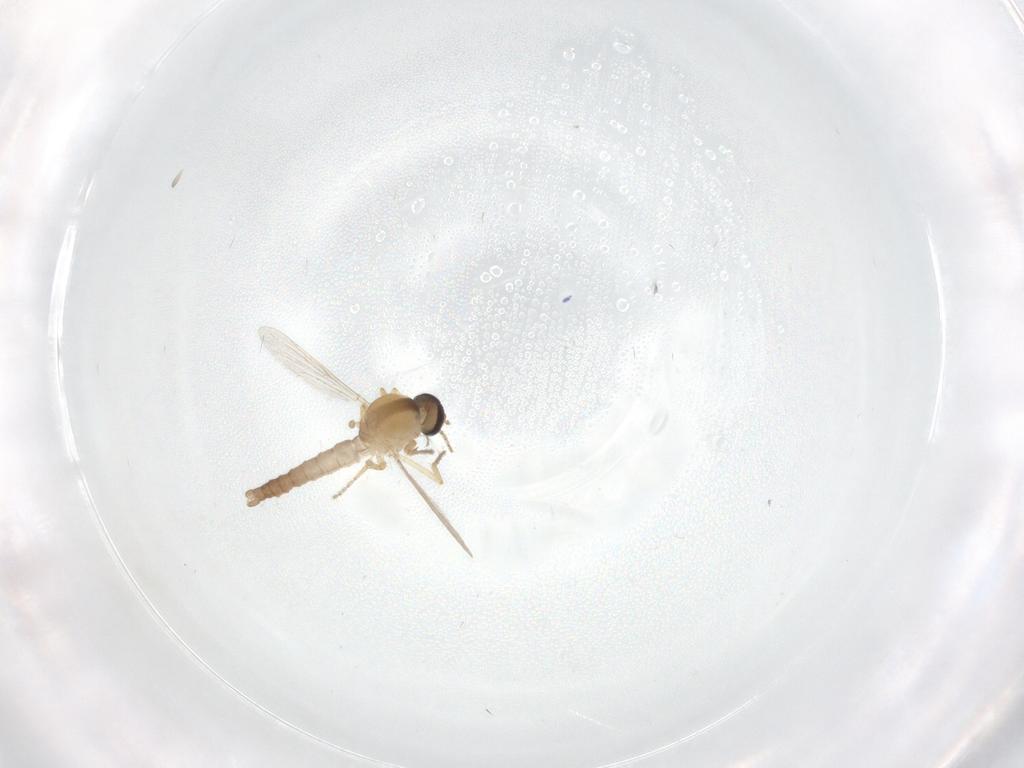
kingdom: Animalia
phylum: Arthropoda
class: Insecta
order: Diptera
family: Ceratopogonidae
